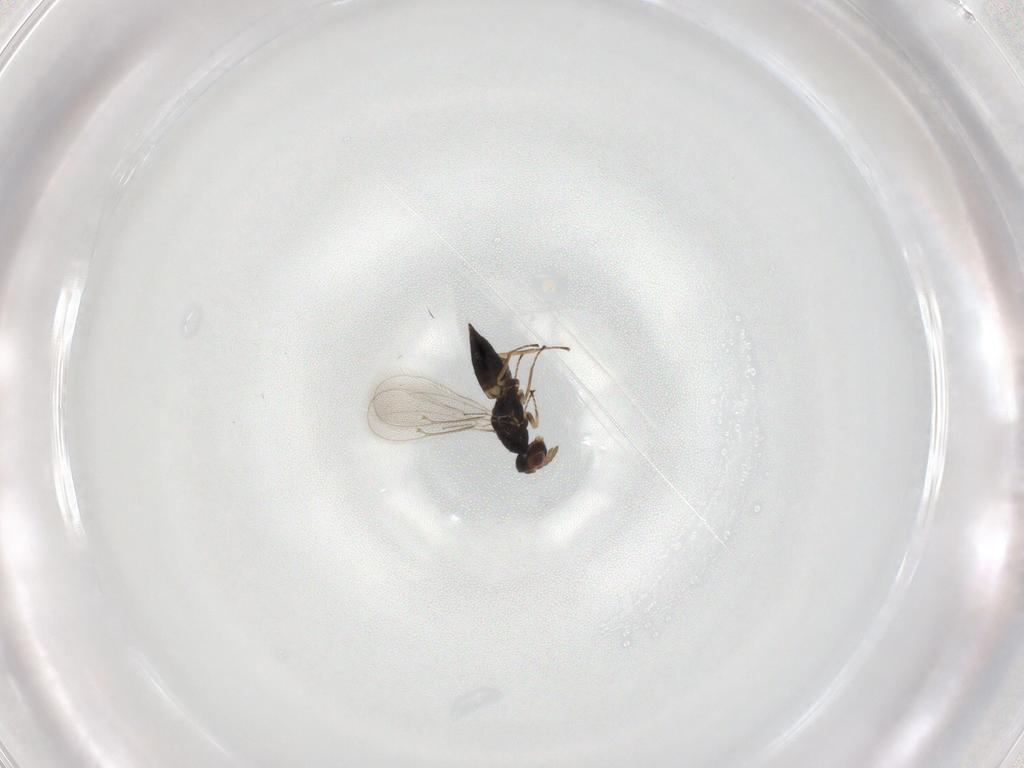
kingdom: Animalia
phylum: Arthropoda
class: Insecta
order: Hymenoptera
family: Eulophidae
